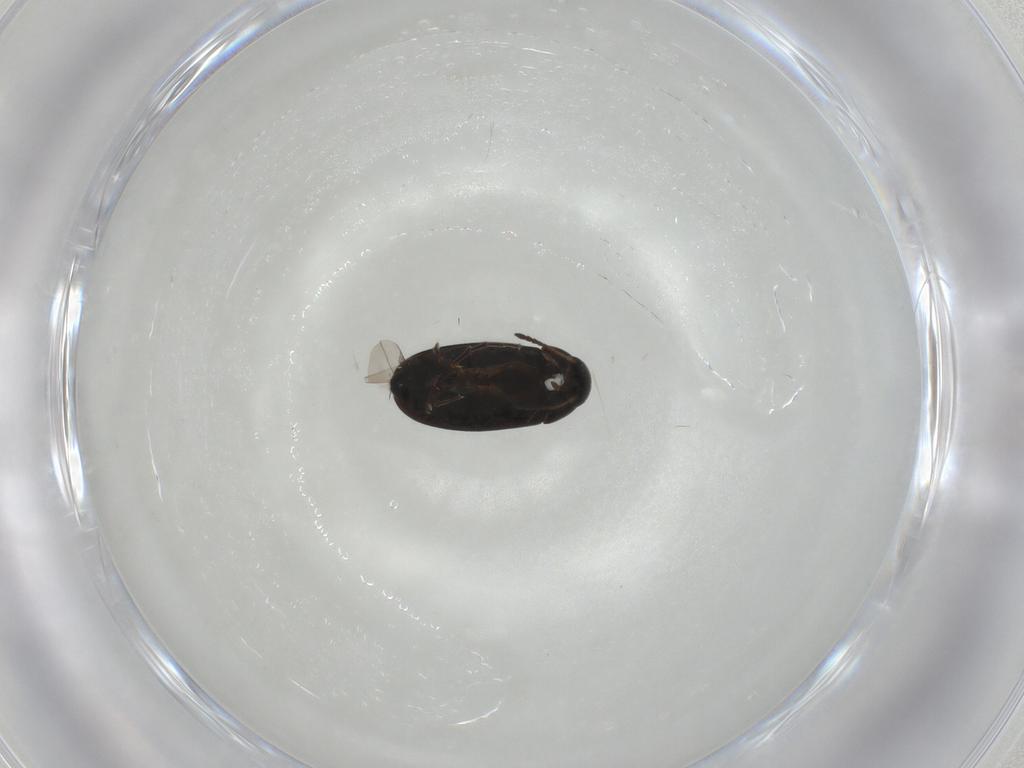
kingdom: Animalia
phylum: Arthropoda
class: Insecta
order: Coleoptera
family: Scraptiidae
